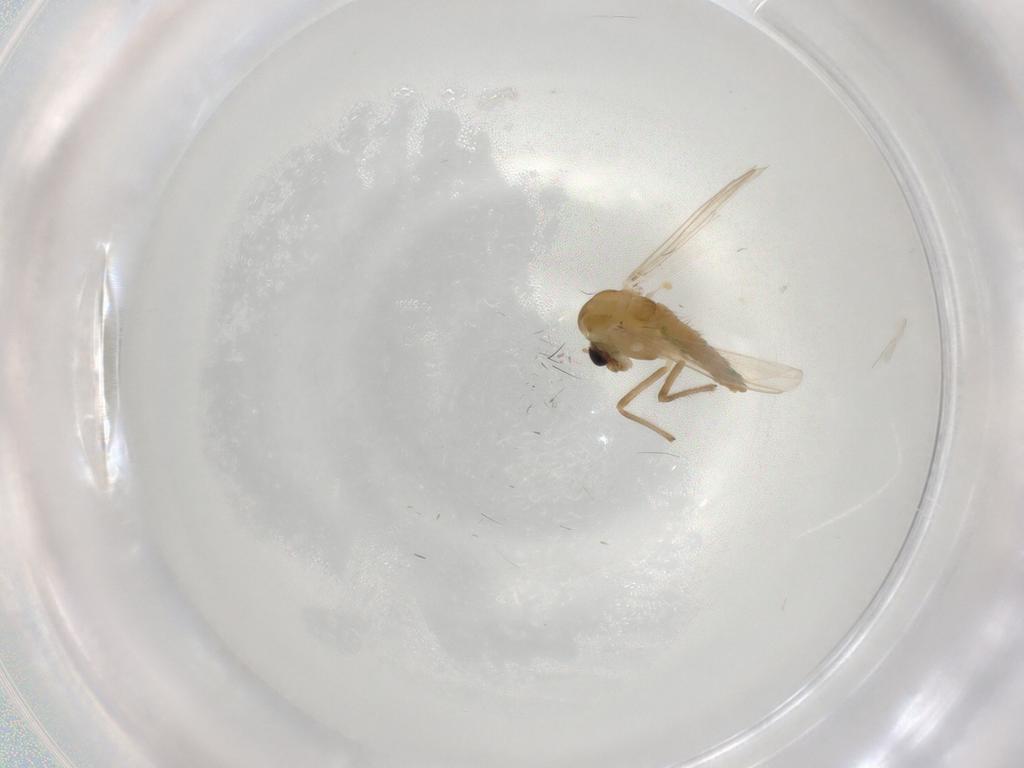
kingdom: Animalia
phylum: Arthropoda
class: Insecta
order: Diptera
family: Chironomidae
